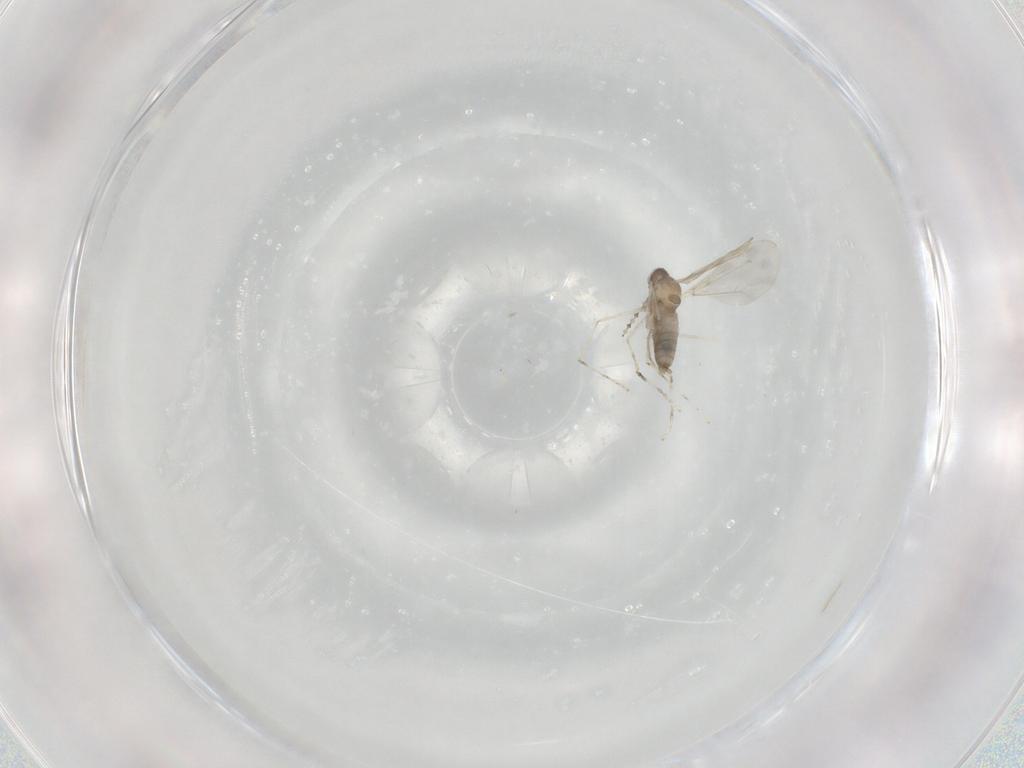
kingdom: Animalia
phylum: Arthropoda
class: Insecta
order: Diptera
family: Cecidomyiidae
